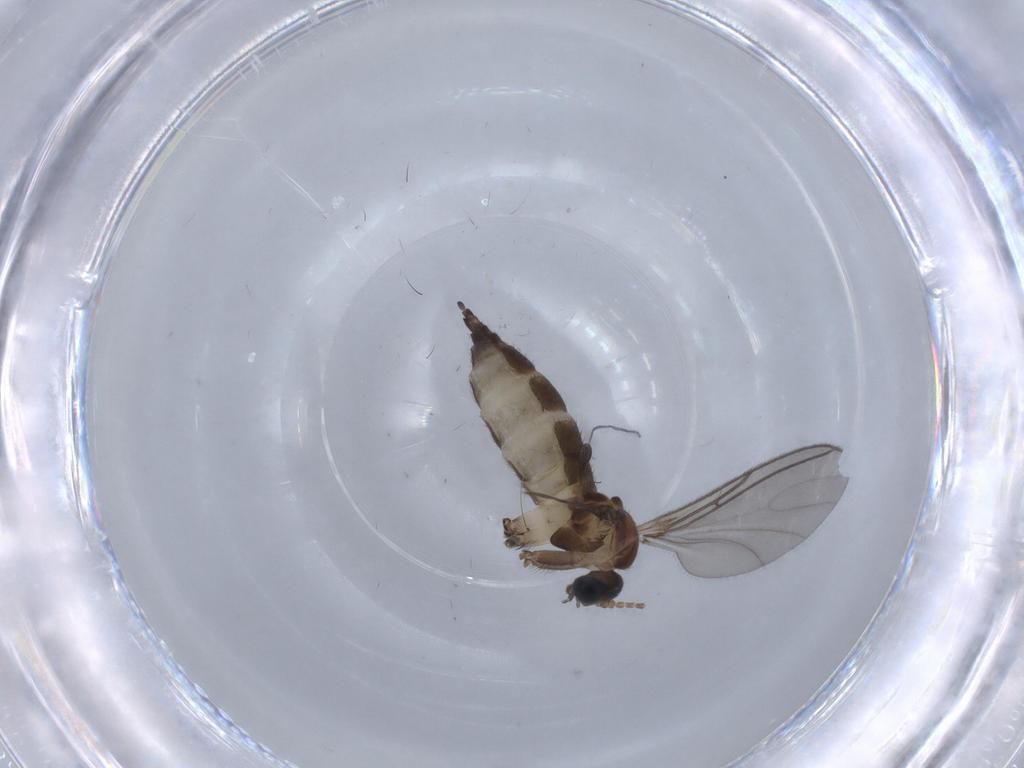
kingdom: Animalia
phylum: Arthropoda
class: Insecta
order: Diptera
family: Sciaridae
